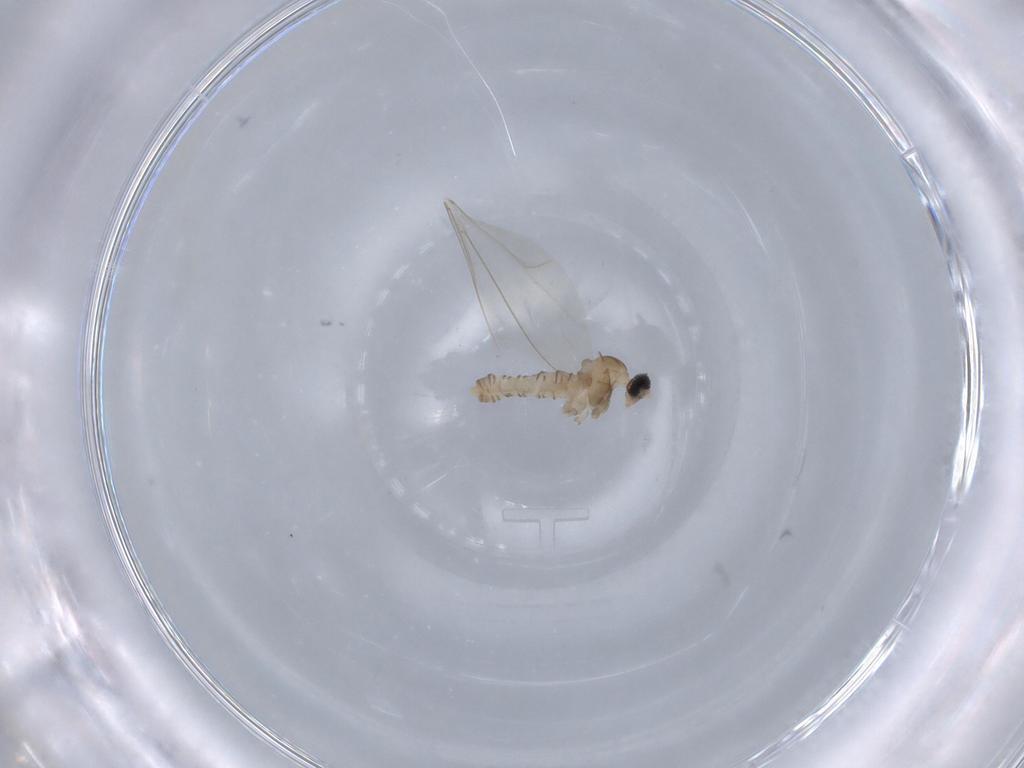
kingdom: Animalia
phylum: Arthropoda
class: Insecta
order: Diptera
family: Cecidomyiidae
